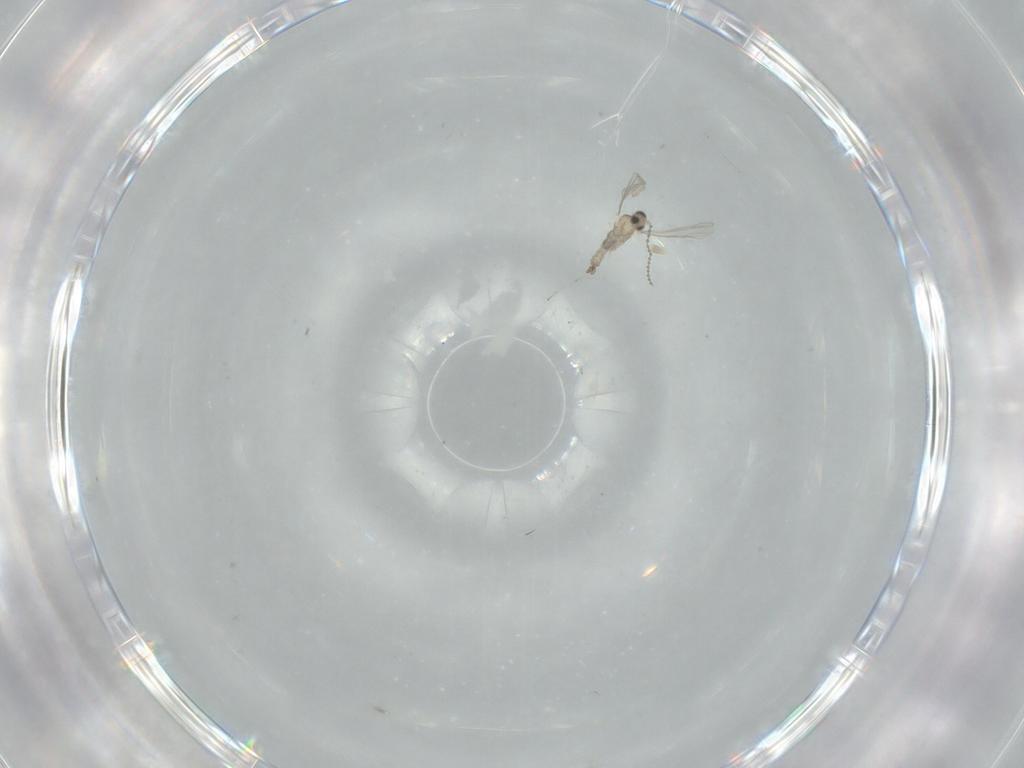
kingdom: Animalia
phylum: Arthropoda
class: Insecta
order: Diptera
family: Cecidomyiidae
